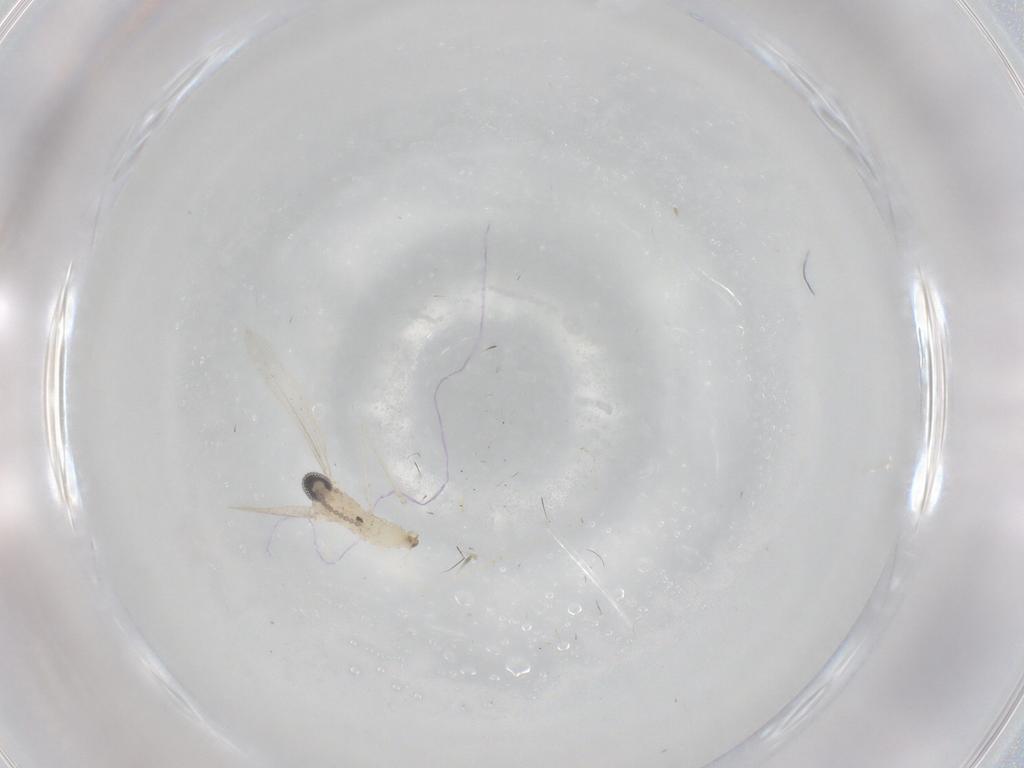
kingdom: Animalia
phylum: Arthropoda
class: Insecta
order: Diptera
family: Cecidomyiidae
